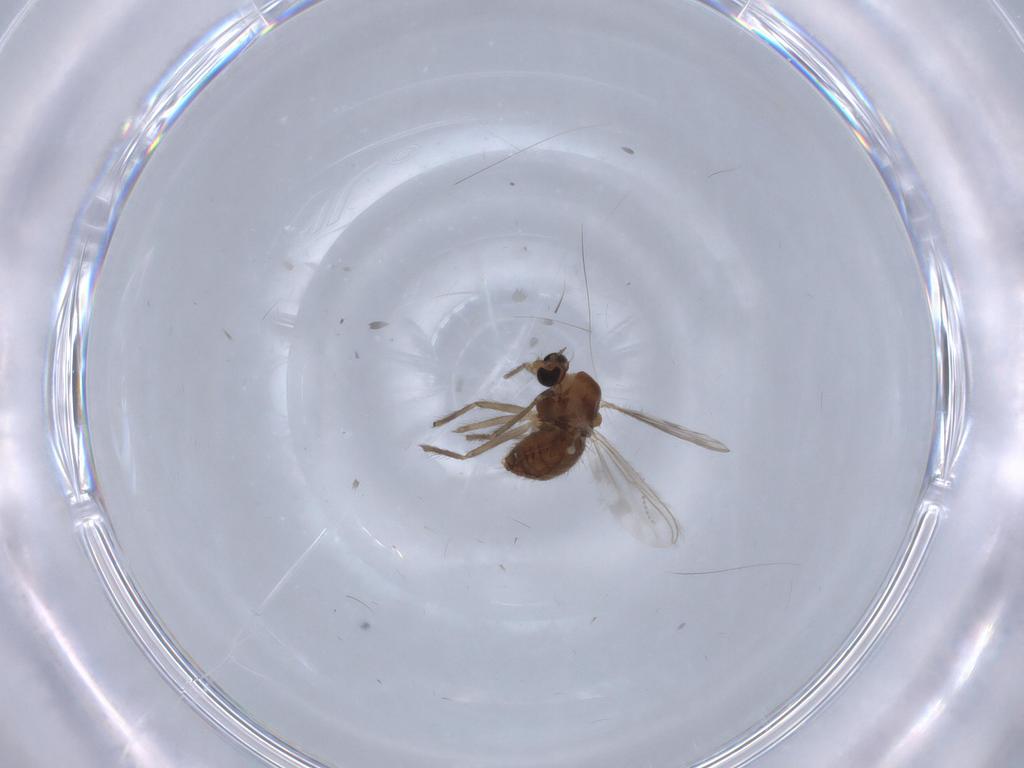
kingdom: Animalia
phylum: Arthropoda
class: Insecta
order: Diptera
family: Chironomidae
